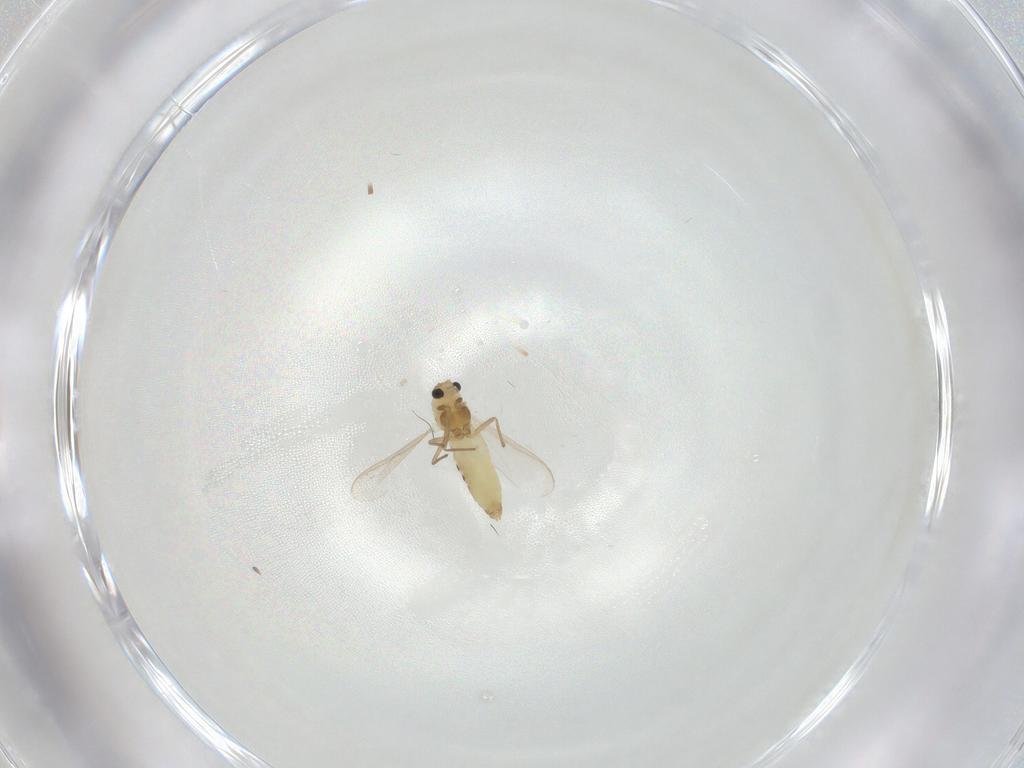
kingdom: Animalia
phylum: Arthropoda
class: Insecta
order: Diptera
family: Chironomidae
